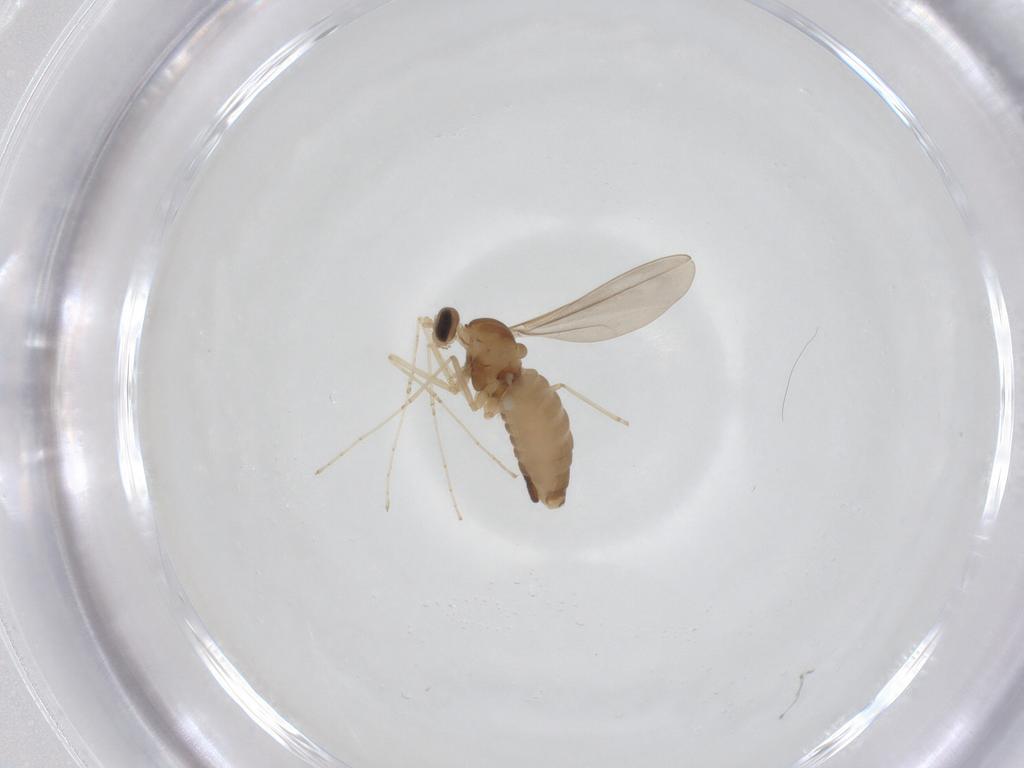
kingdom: Animalia
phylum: Arthropoda
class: Insecta
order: Diptera
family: Cecidomyiidae
